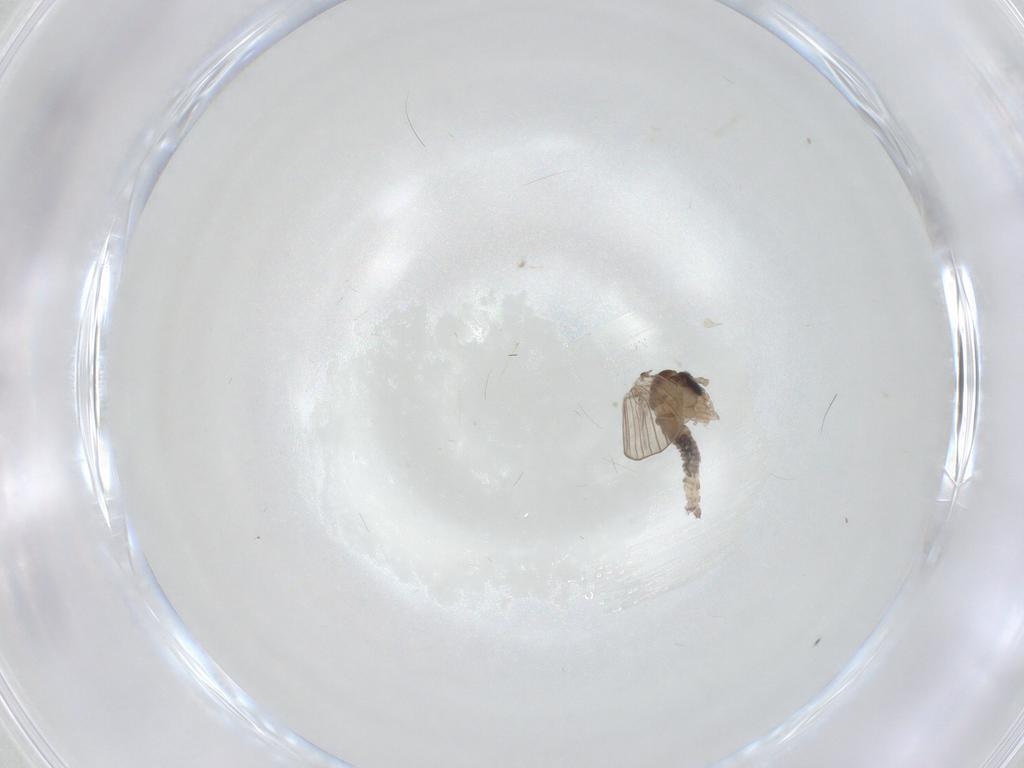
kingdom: Animalia
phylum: Arthropoda
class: Insecta
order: Diptera
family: Psychodidae
